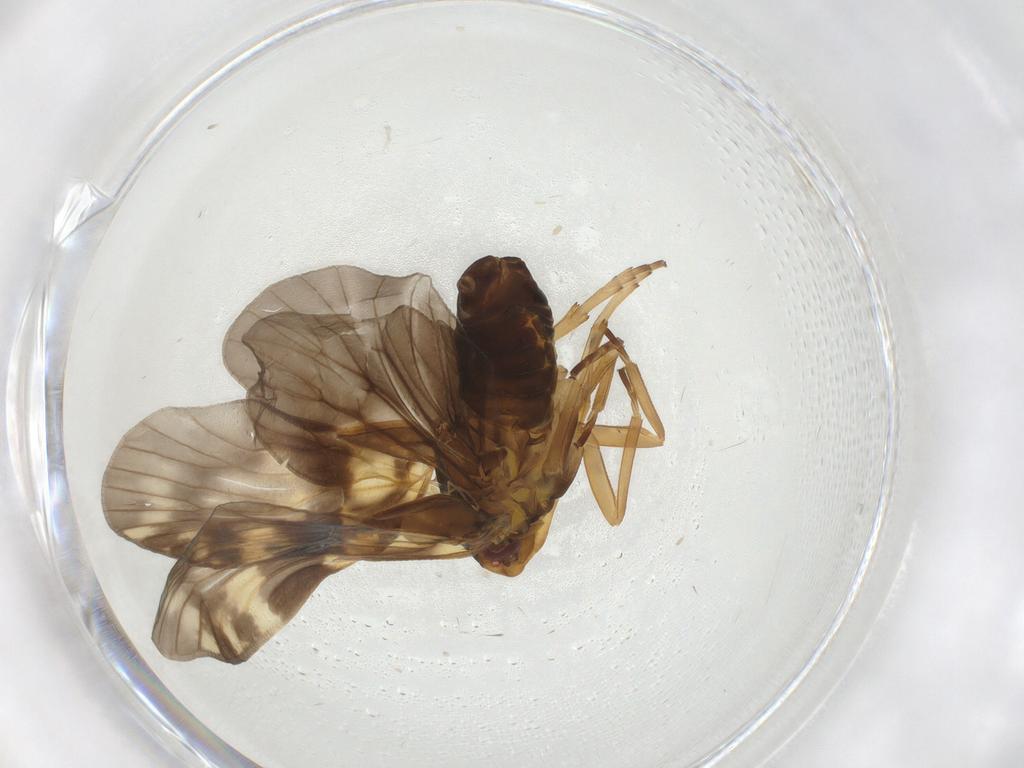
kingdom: Animalia
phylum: Arthropoda
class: Insecta
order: Hemiptera
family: Cixiidae
